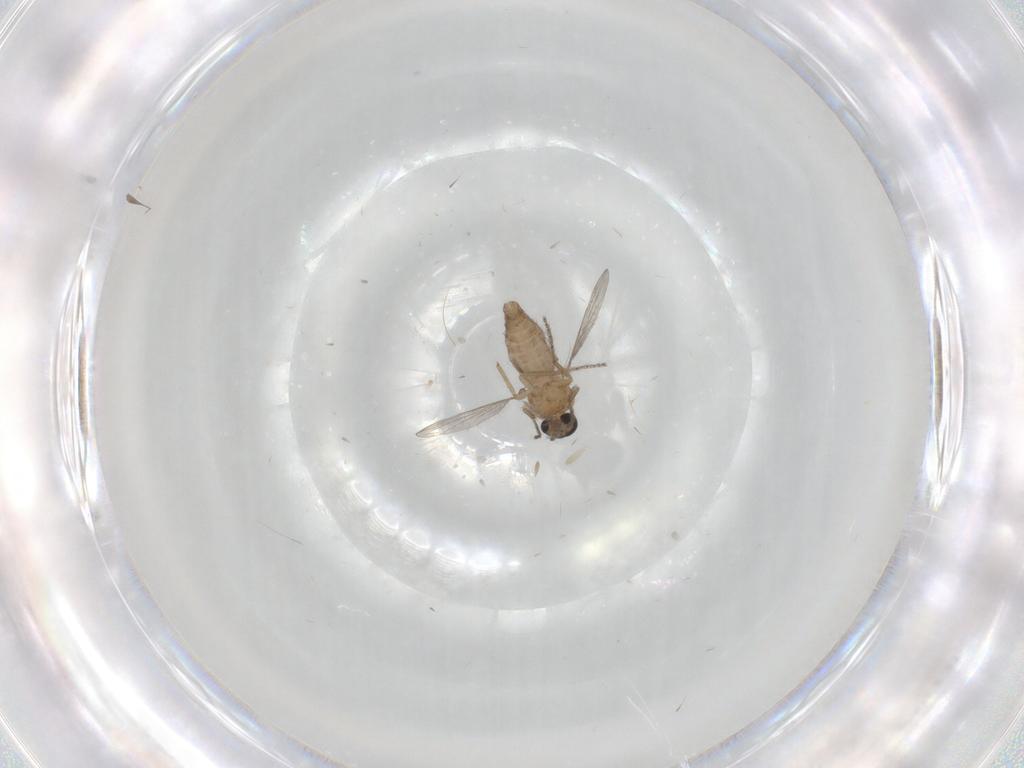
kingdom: Animalia
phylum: Arthropoda
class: Insecta
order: Diptera
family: Ceratopogonidae
